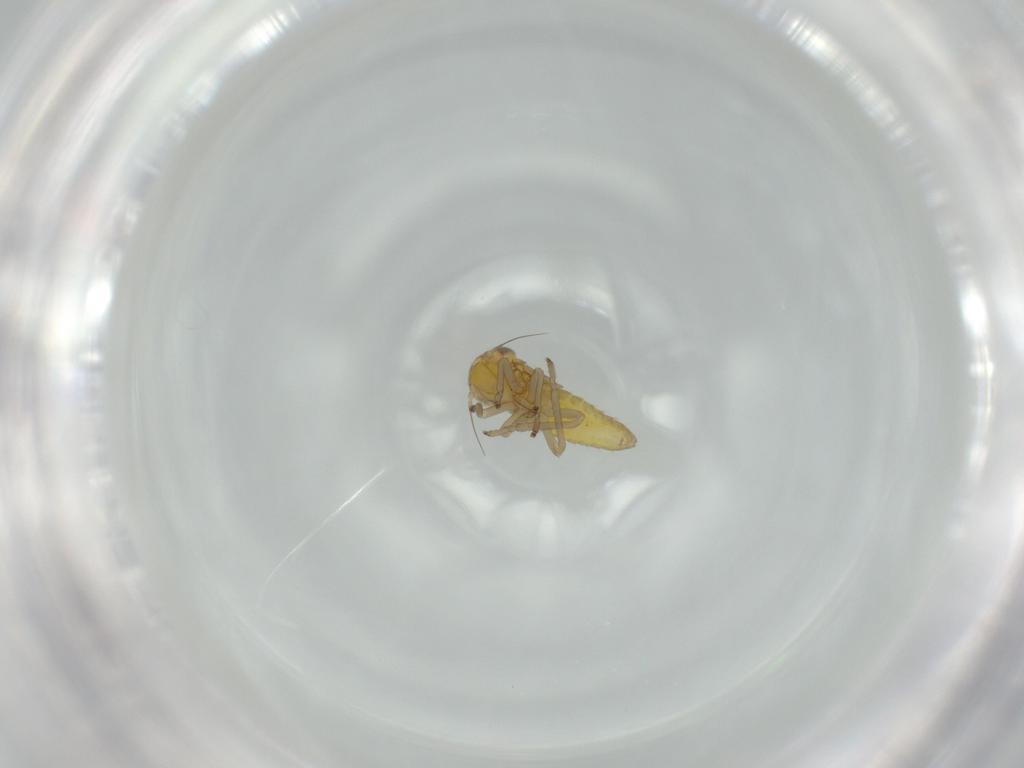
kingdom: Animalia
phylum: Arthropoda
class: Insecta
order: Hemiptera
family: Cicadellidae
